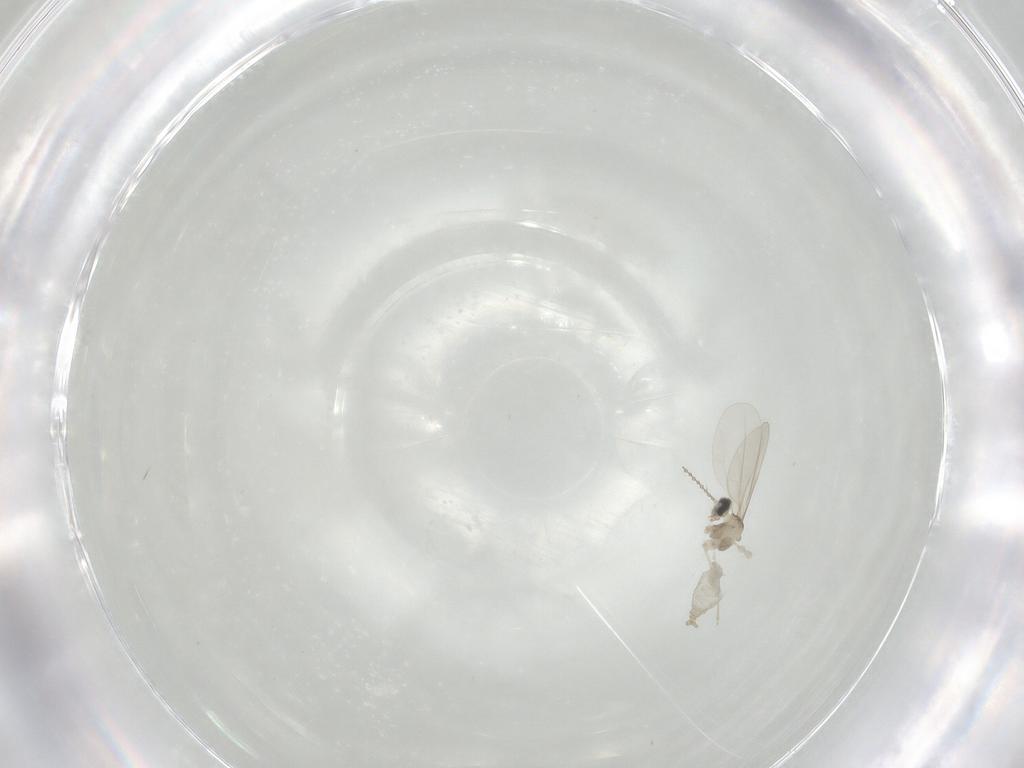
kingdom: Animalia
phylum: Arthropoda
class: Insecta
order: Diptera
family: Cecidomyiidae
